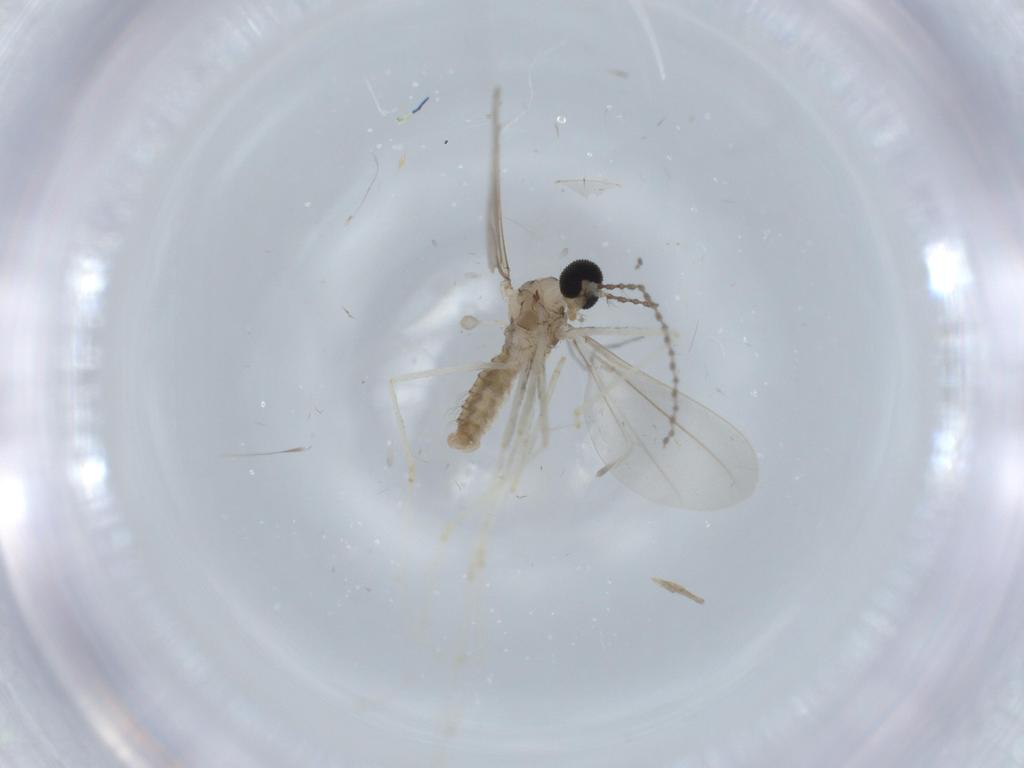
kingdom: Animalia
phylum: Arthropoda
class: Insecta
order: Diptera
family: Cecidomyiidae
